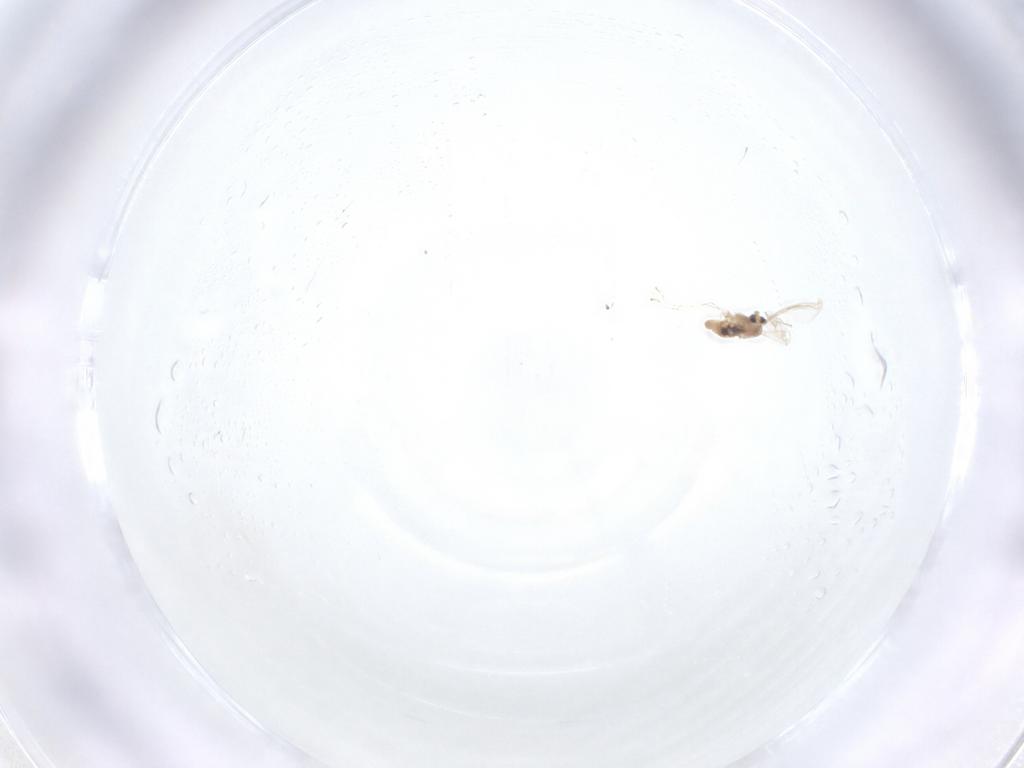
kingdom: Animalia
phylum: Arthropoda
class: Insecta
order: Diptera
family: Cecidomyiidae
